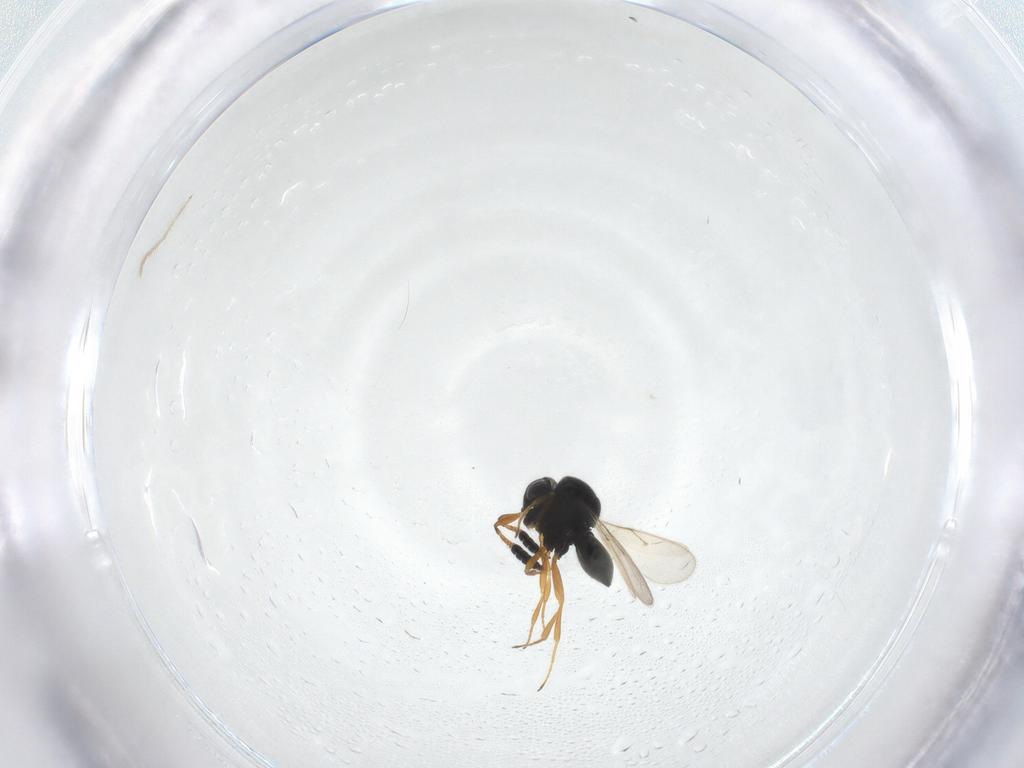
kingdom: Animalia
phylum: Arthropoda
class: Insecta
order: Hymenoptera
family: Scelionidae
